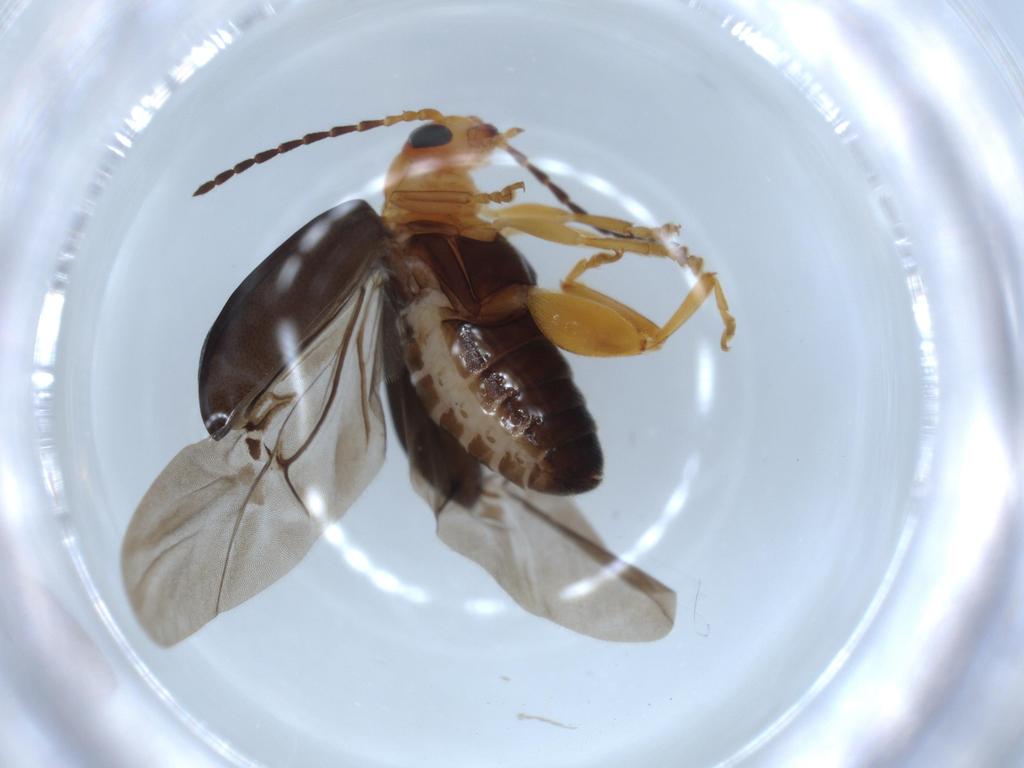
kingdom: Animalia
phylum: Arthropoda
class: Insecta
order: Coleoptera
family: Chrysomelidae
